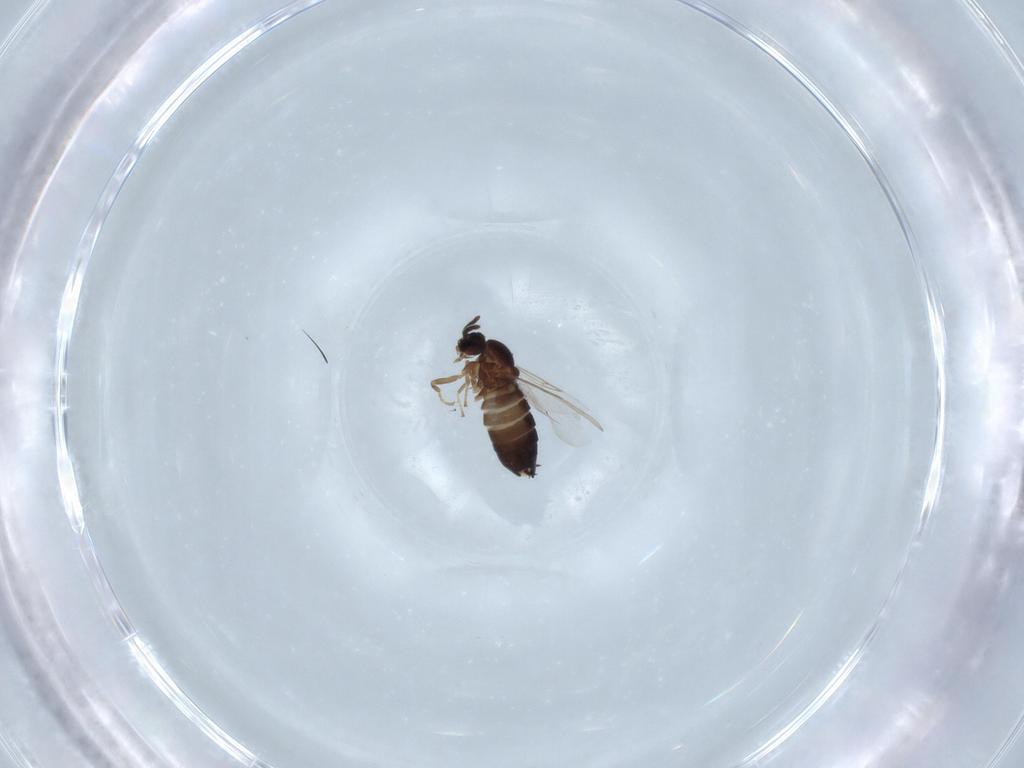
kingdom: Animalia
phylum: Arthropoda
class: Insecta
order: Diptera
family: Scatopsidae
